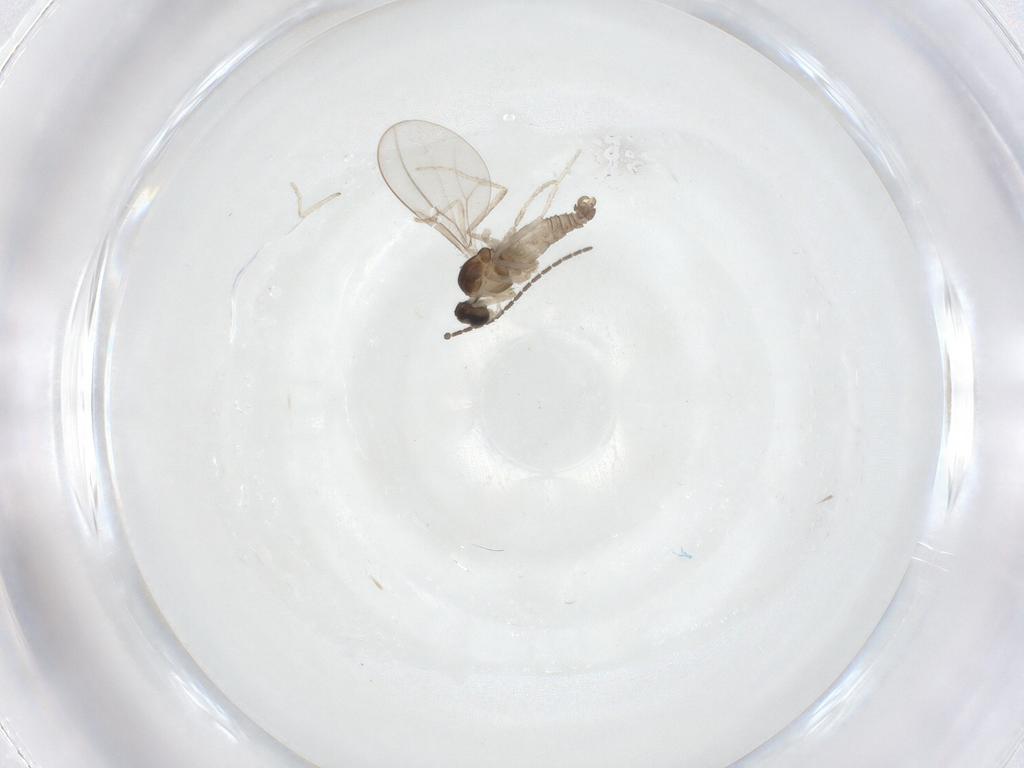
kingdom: Animalia
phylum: Arthropoda
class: Insecta
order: Diptera
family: Cecidomyiidae
